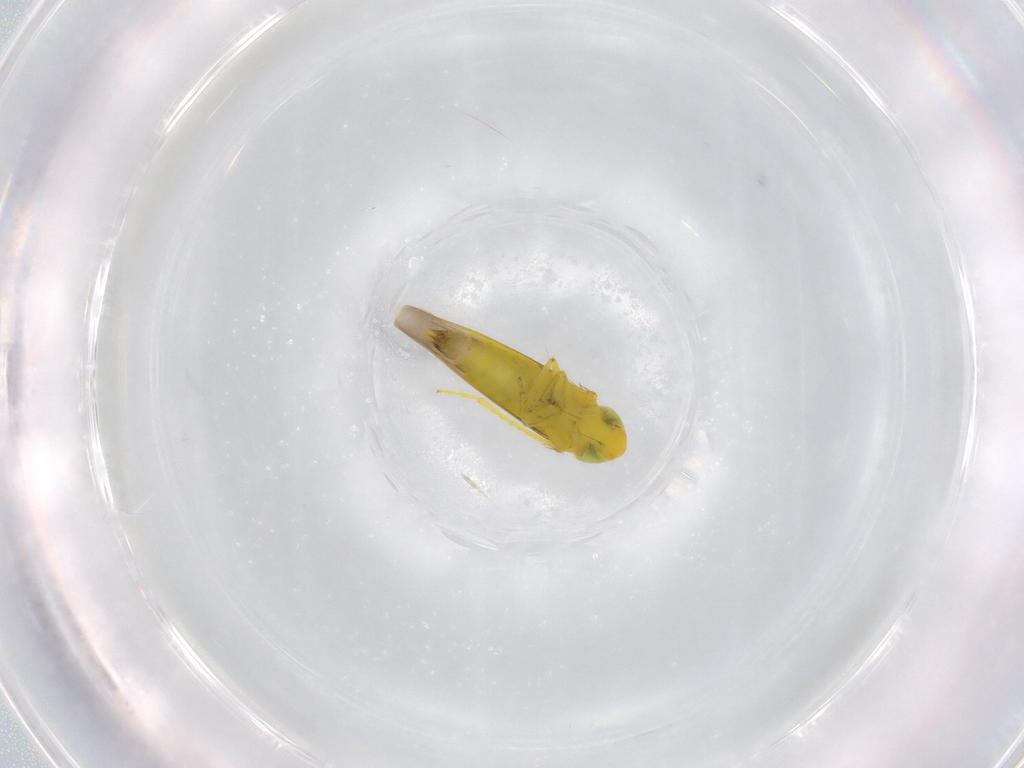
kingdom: Animalia
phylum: Arthropoda
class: Insecta
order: Hemiptera
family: Cicadellidae
